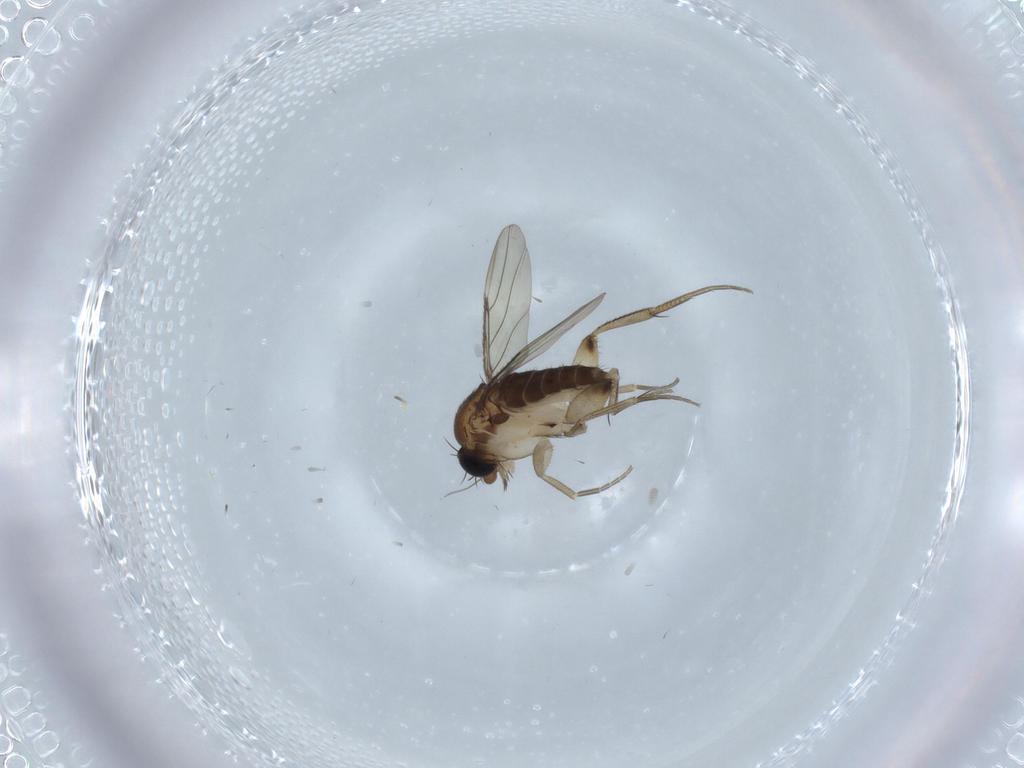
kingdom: Animalia
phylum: Arthropoda
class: Insecta
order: Diptera
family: Phoridae
